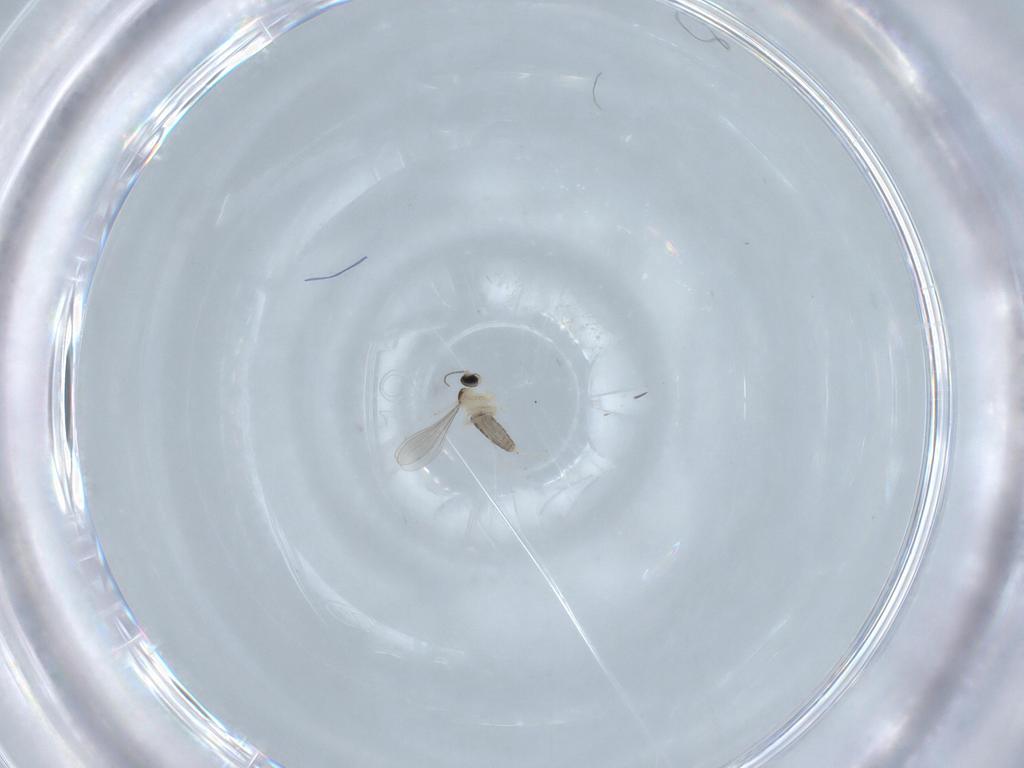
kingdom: Animalia
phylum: Arthropoda
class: Insecta
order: Diptera
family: Cecidomyiidae
